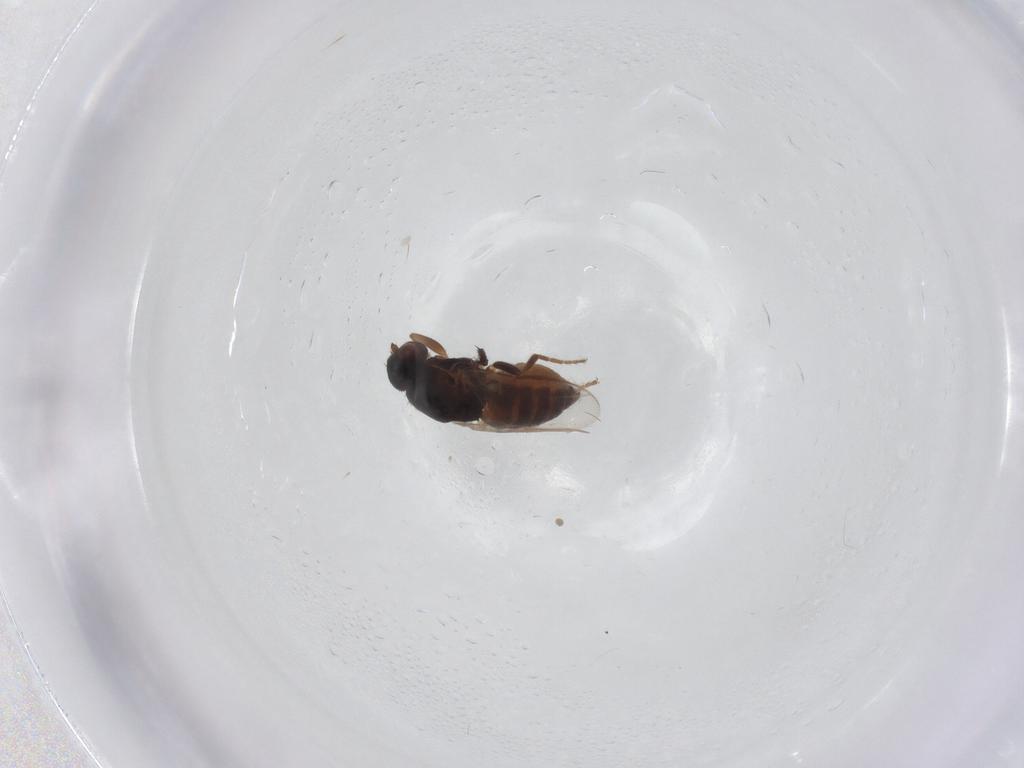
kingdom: Animalia
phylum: Arthropoda
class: Insecta
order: Diptera
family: Sphaeroceridae
